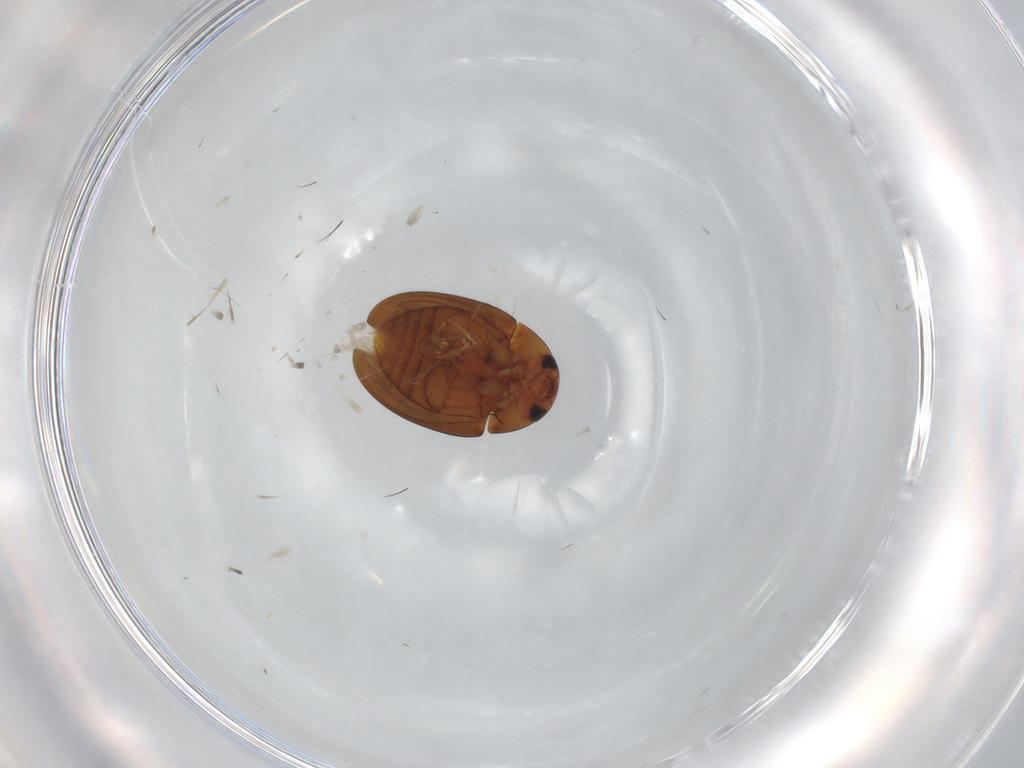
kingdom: Animalia
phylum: Arthropoda
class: Insecta
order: Coleoptera
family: Phalacridae
